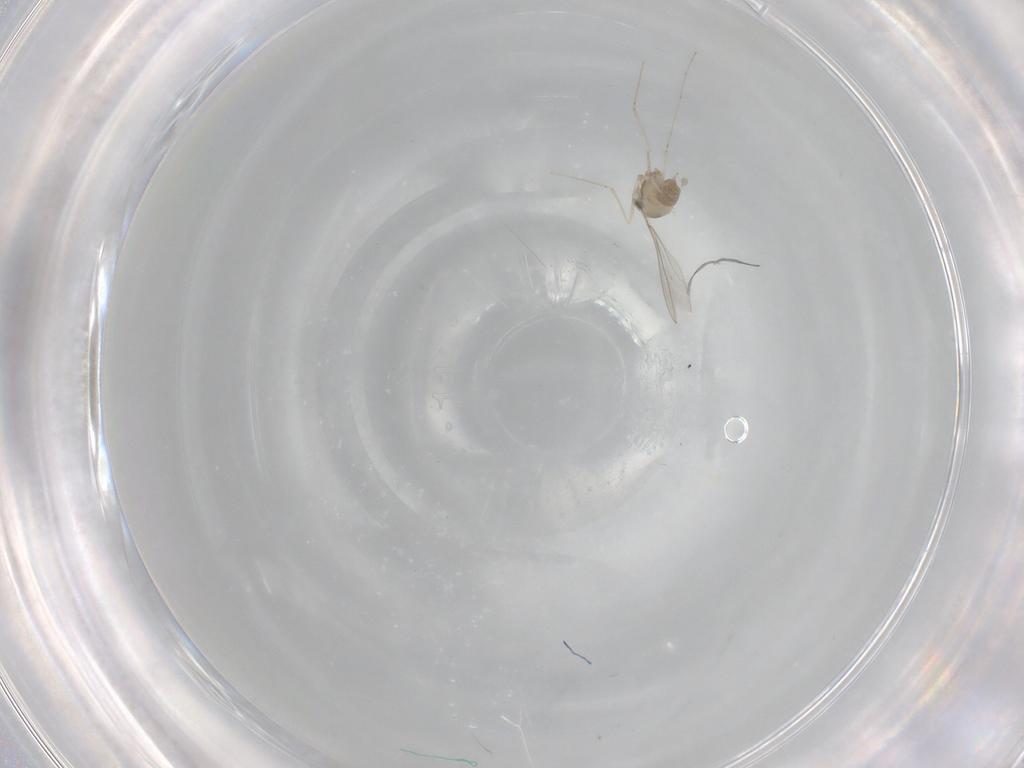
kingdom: Animalia
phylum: Arthropoda
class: Insecta
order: Diptera
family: Cecidomyiidae
